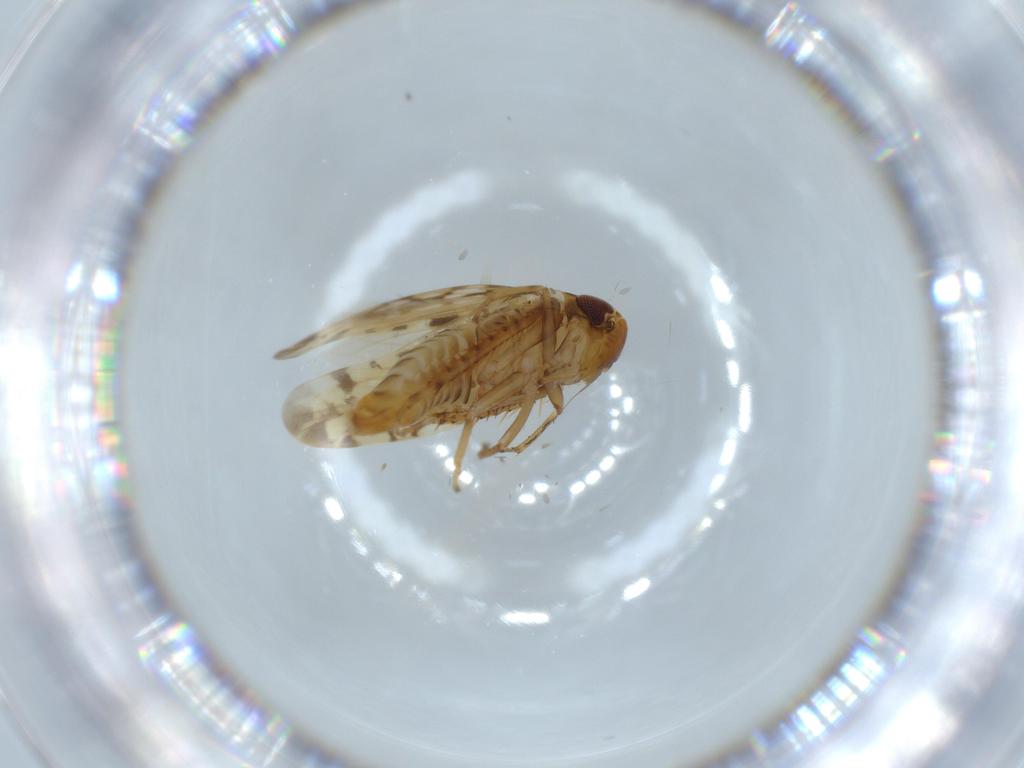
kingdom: Animalia
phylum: Arthropoda
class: Insecta
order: Hemiptera
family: Cicadellidae
